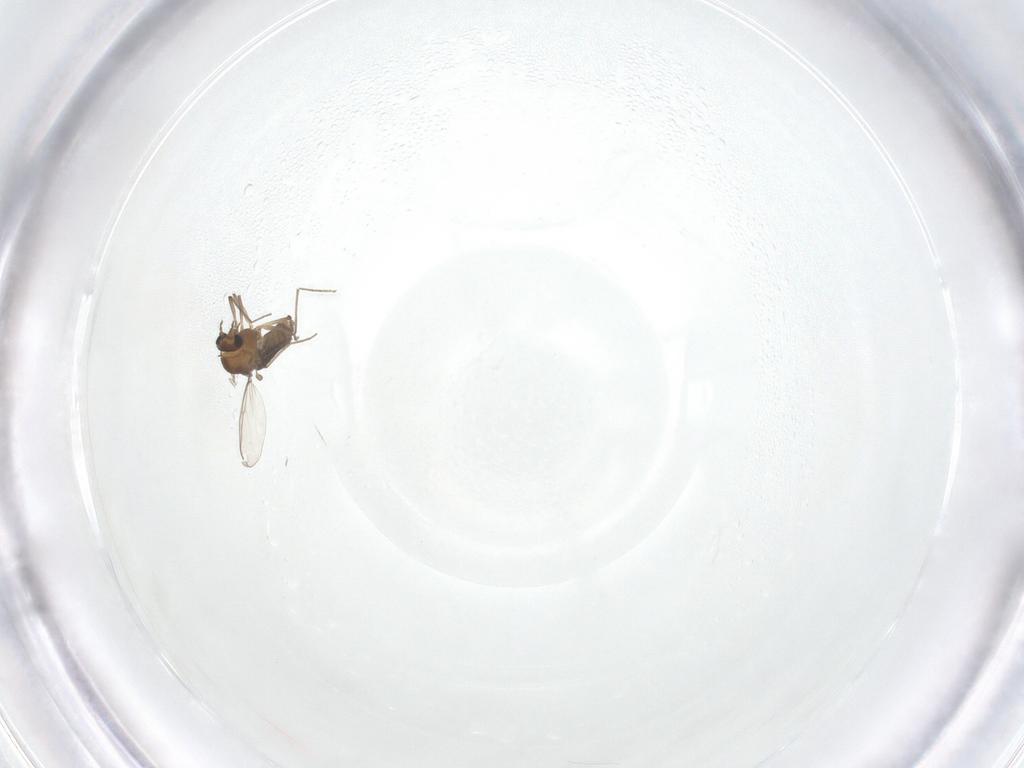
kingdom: Animalia
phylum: Arthropoda
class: Insecta
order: Diptera
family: Chironomidae
